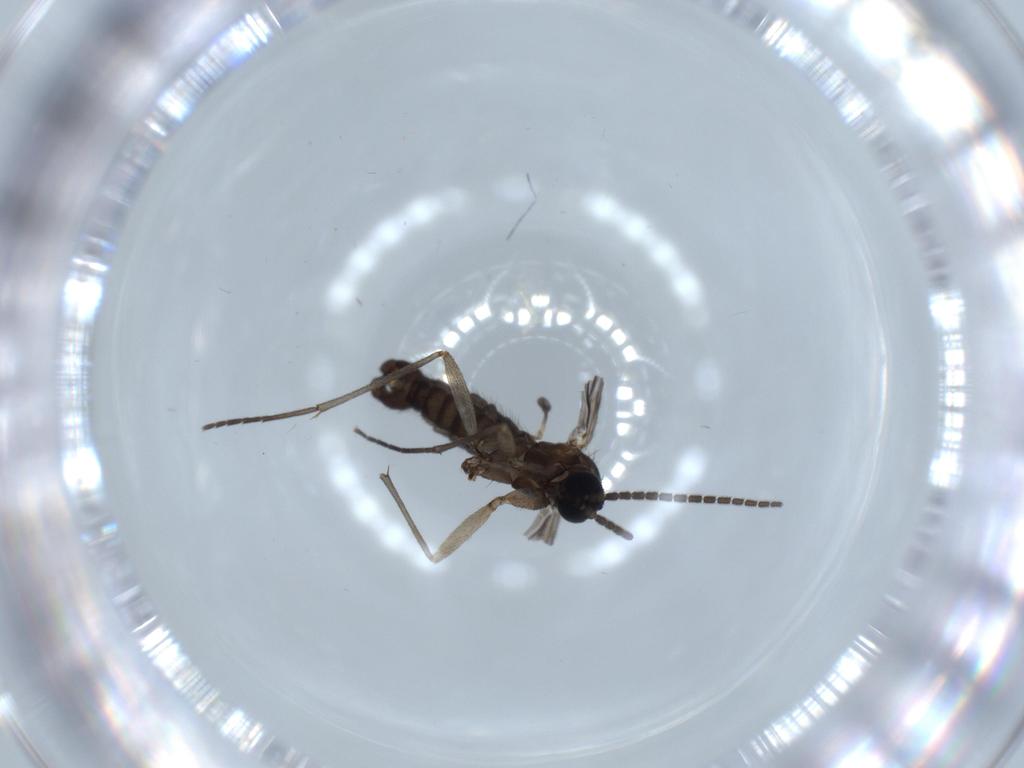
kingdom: Animalia
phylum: Arthropoda
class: Insecta
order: Diptera
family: Sciaridae
